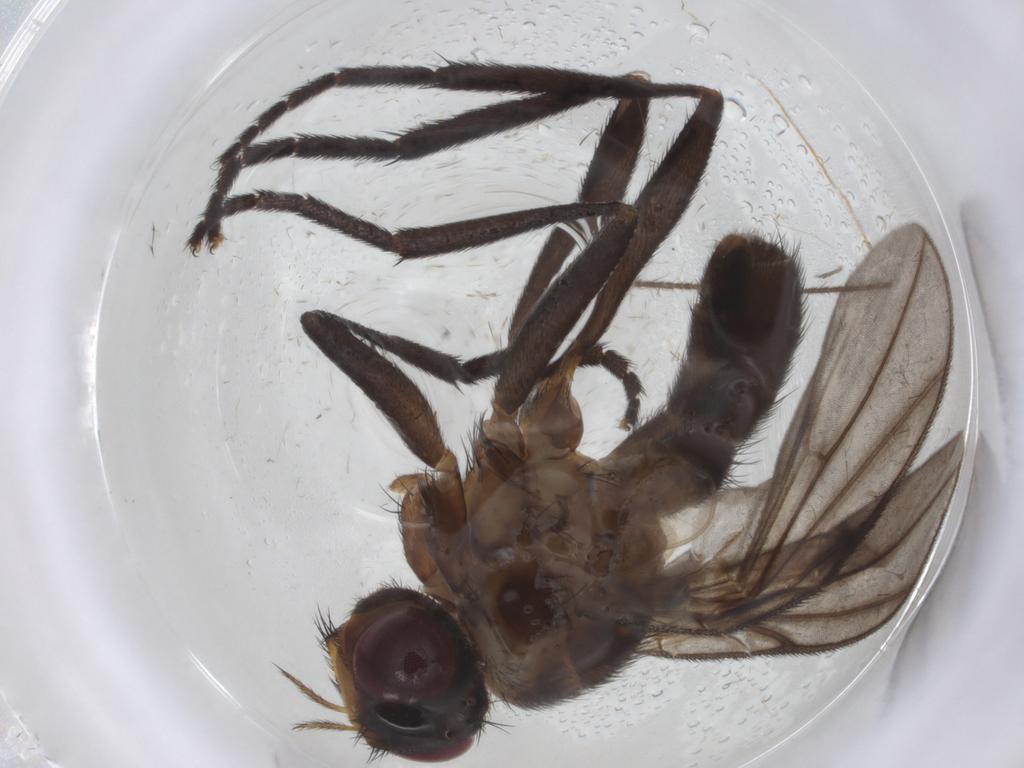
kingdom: Animalia
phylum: Arthropoda
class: Insecta
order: Diptera
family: Calliphoridae
